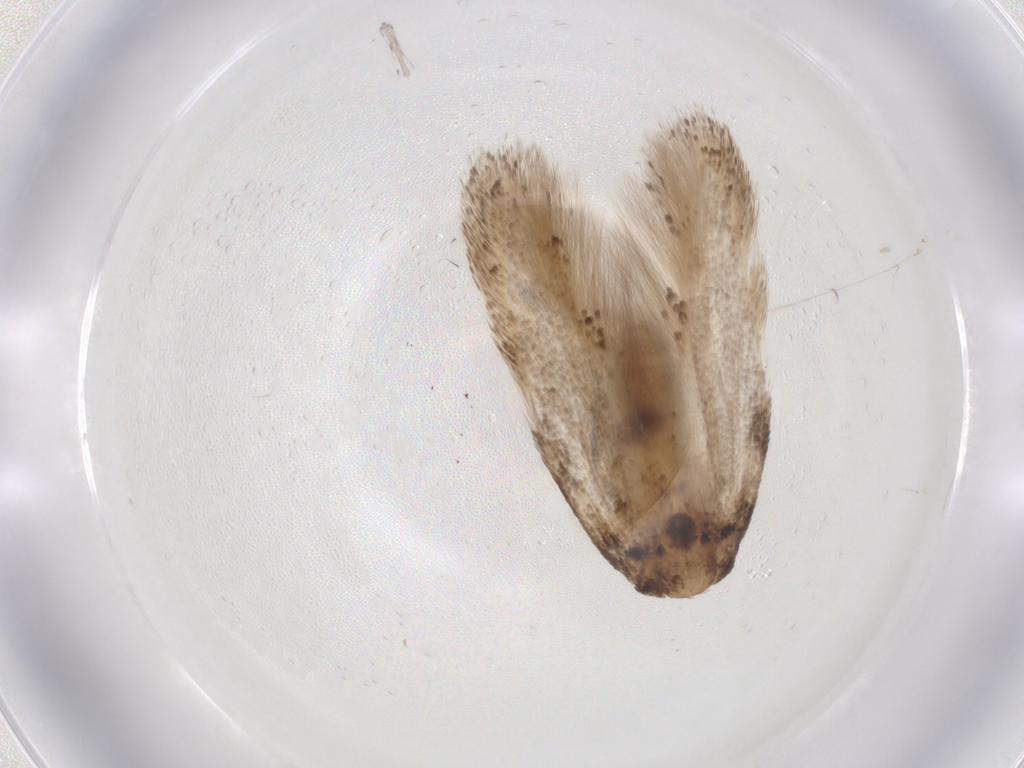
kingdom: Animalia
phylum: Arthropoda
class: Insecta
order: Lepidoptera
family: Gelechiidae
